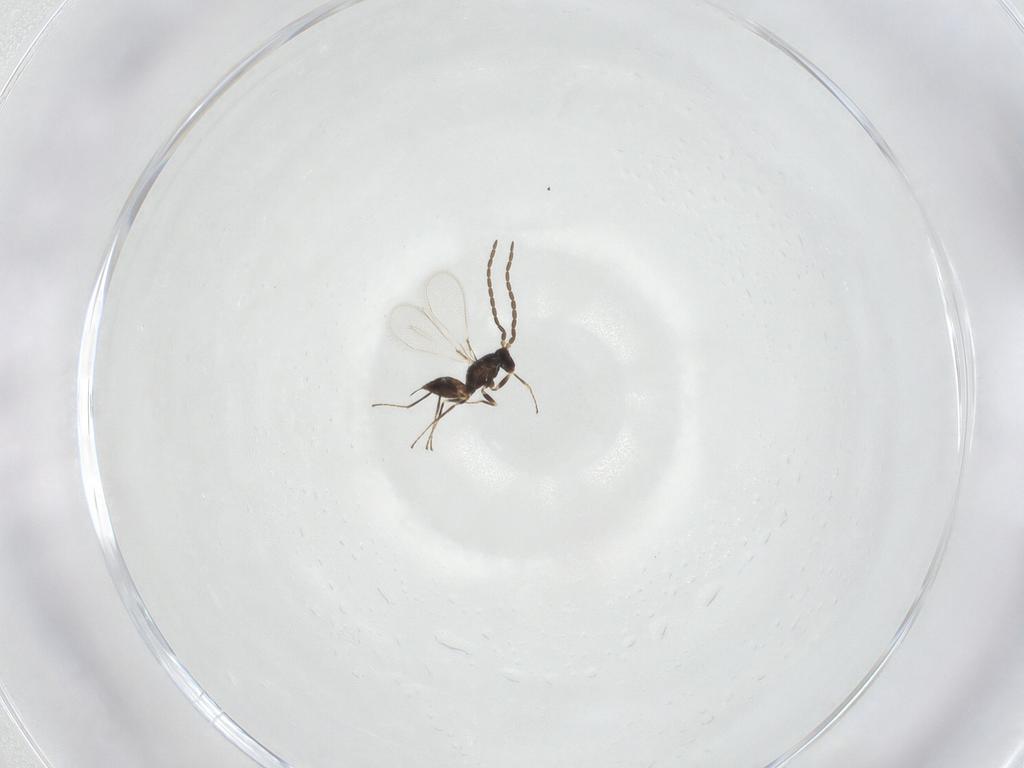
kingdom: Animalia
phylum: Arthropoda
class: Insecta
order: Hymenoptera
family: Mymaridae
